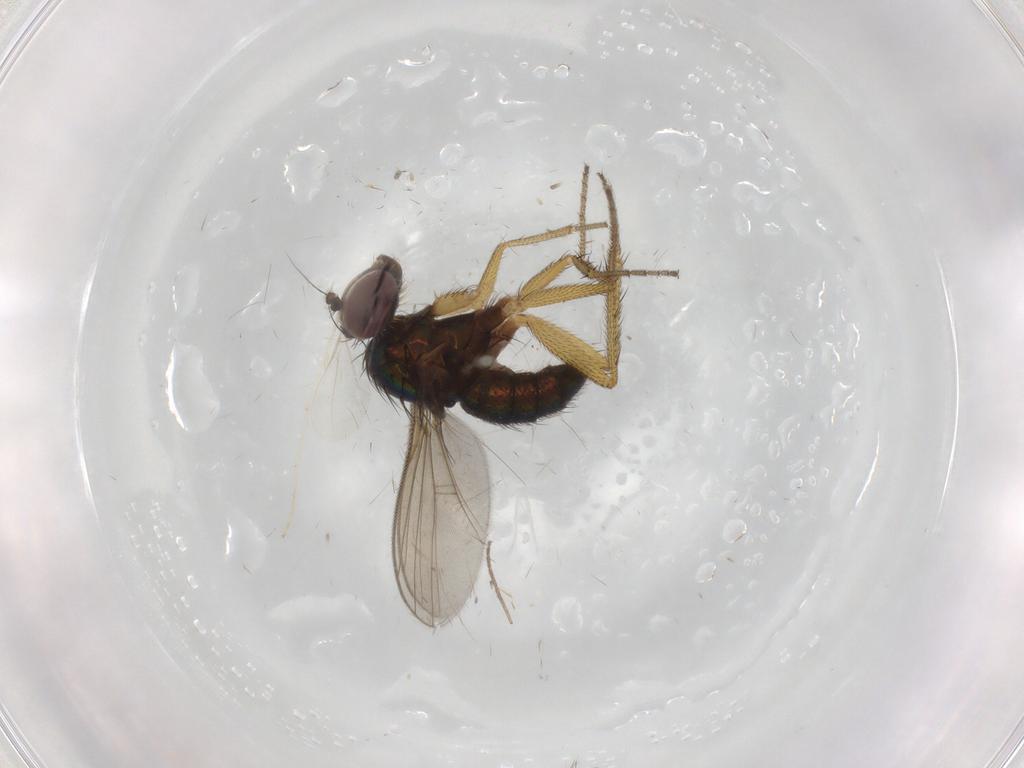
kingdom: Animalia
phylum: Arthropoda
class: Insecta
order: Diptera
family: Chironomidae
